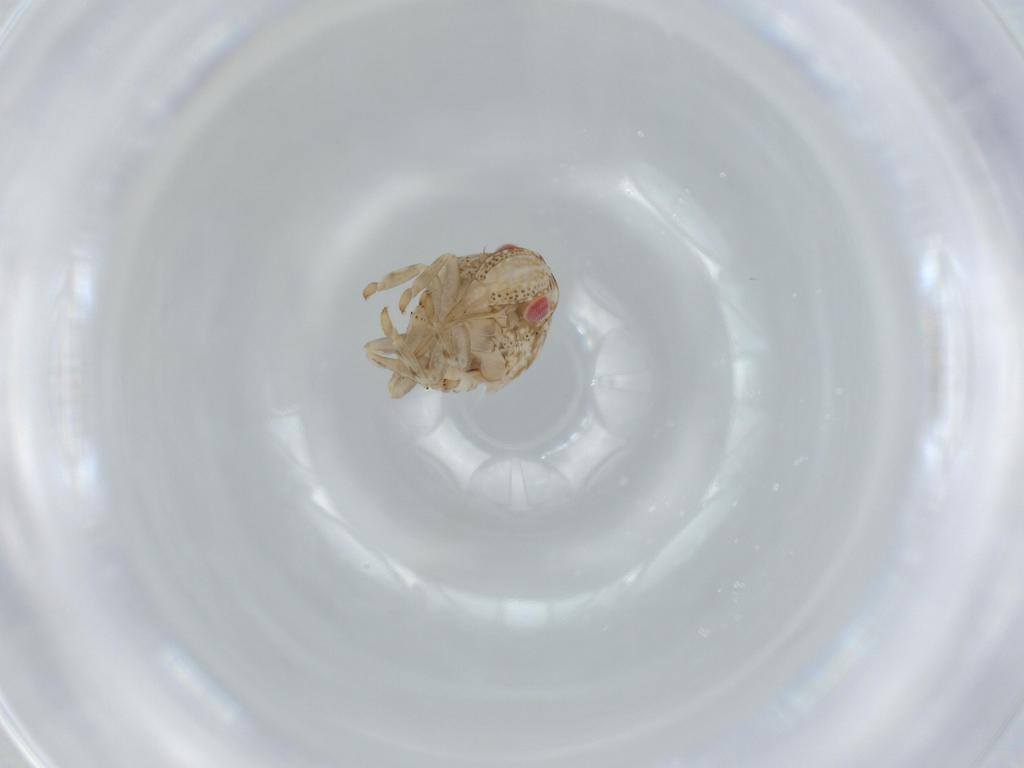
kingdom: Animalia
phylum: Arthropoda
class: Insecta
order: Hemiptera
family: Acanaloniidae
